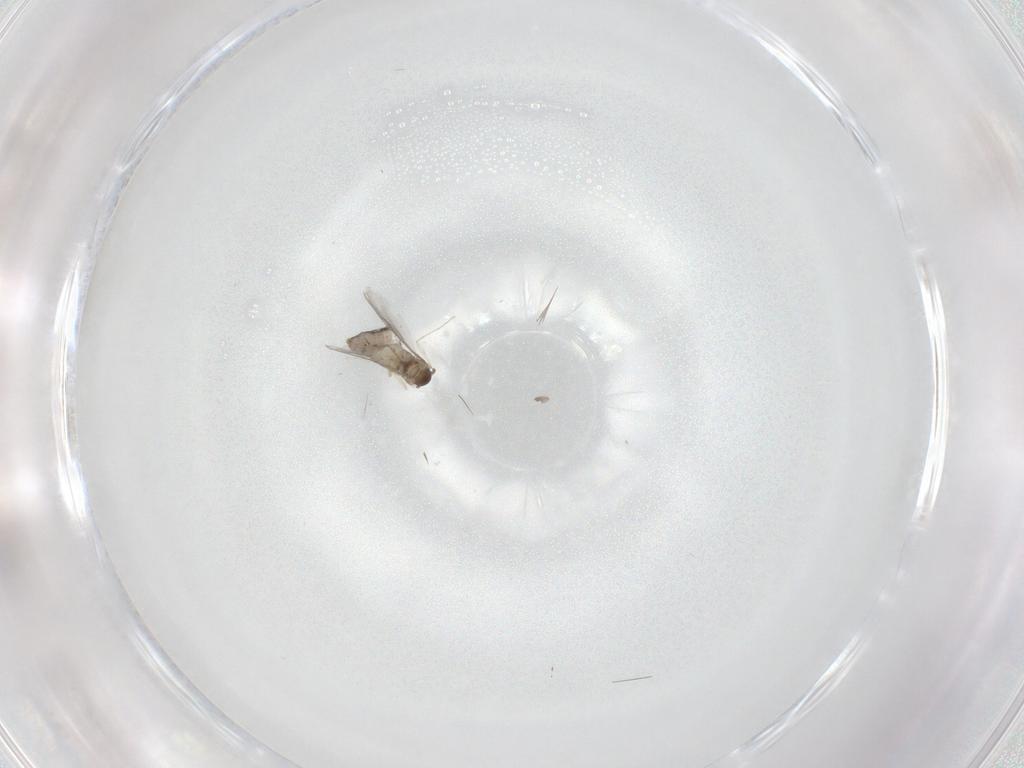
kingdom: Animalia
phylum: Arthropoda
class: Insecta
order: Diptera
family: Cecidomyiidae
